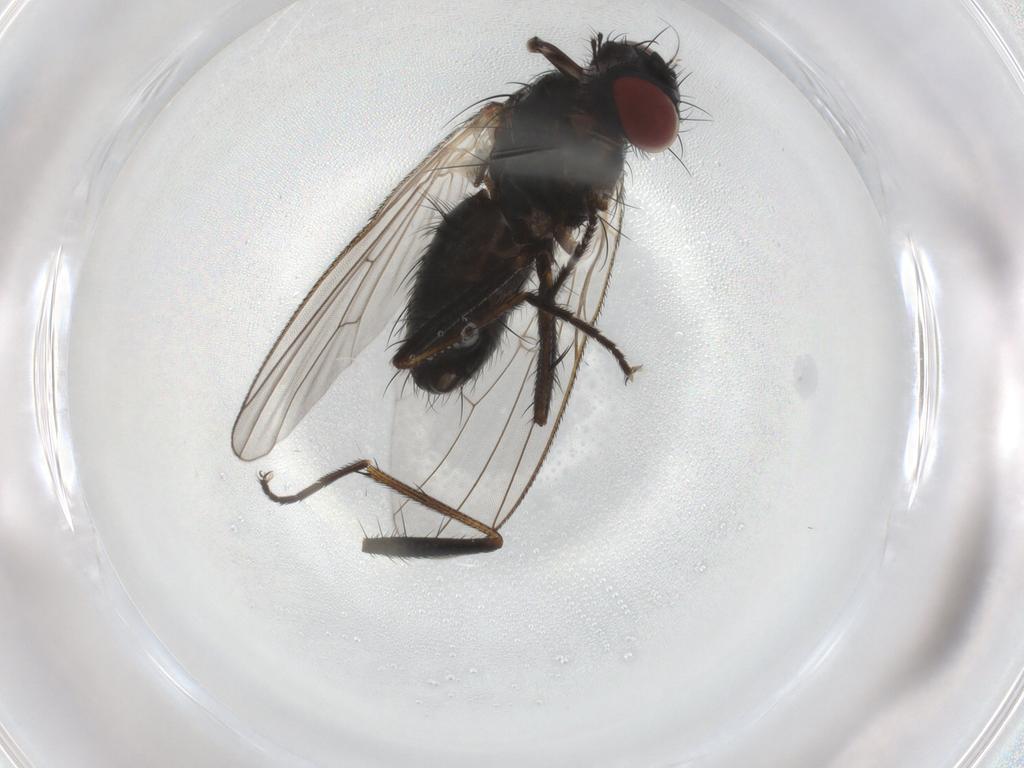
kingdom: Animalia
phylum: Arthropoda
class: Insecta
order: Diptera
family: Muscidae
